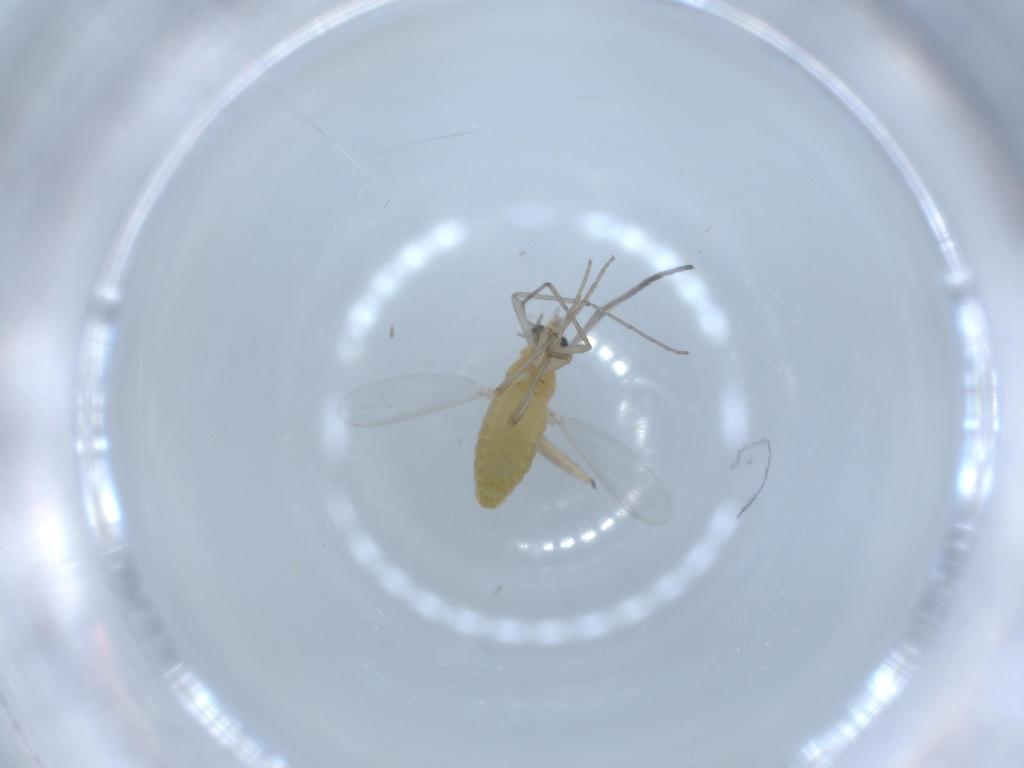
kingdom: Animalia
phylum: Arthropoda
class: Insecta
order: Diptera
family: Chironomidae
